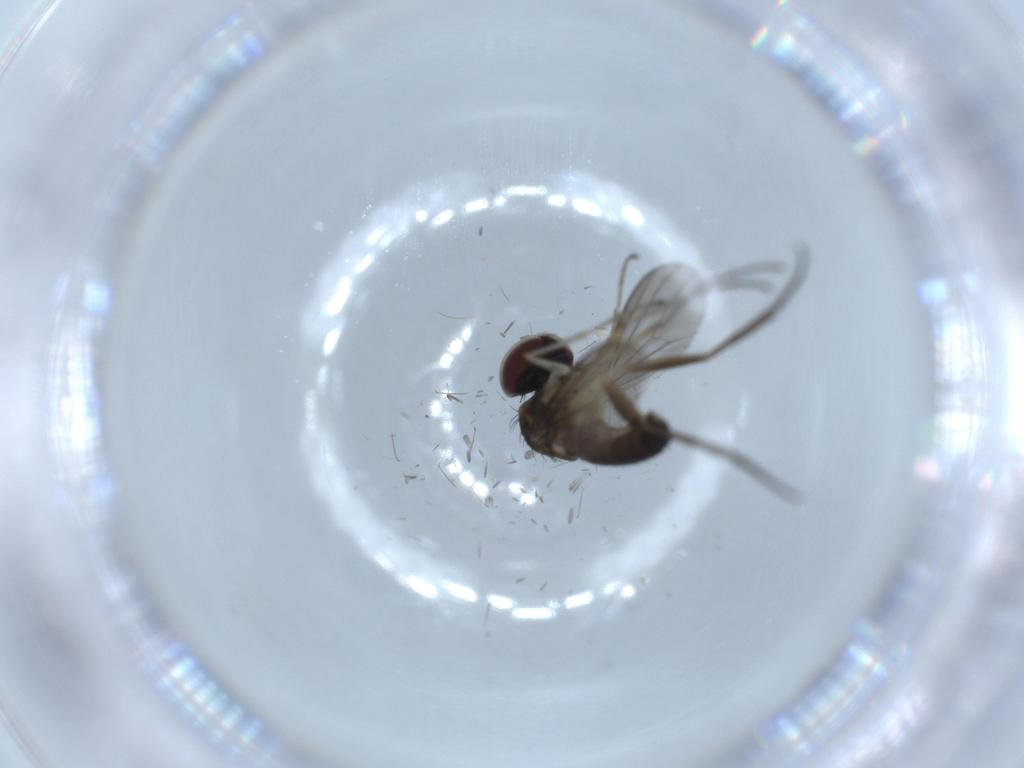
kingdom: Animalia
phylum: Arthropoda
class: Insecta
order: Diptera
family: Dolichopodidae
